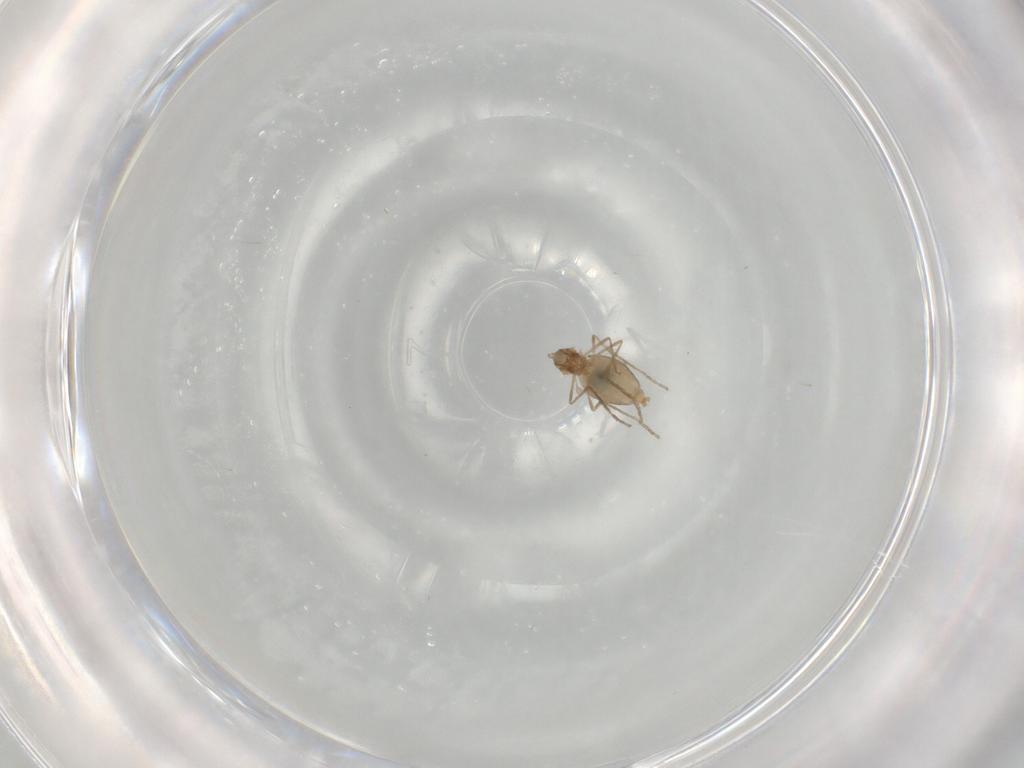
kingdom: Animalia
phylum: Arthropoda
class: Insecta
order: Diptera
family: Cecidomyiidae
